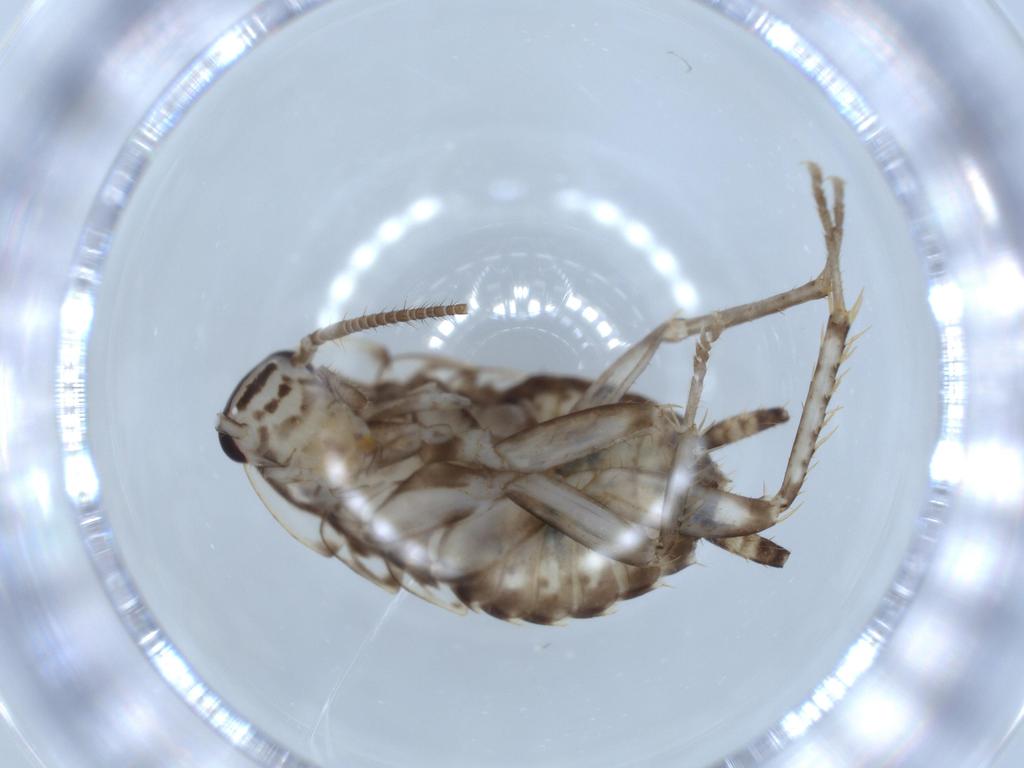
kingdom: Animalia
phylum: Arthropoda
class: Insecta
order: Blattodea
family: Ectobiidae
